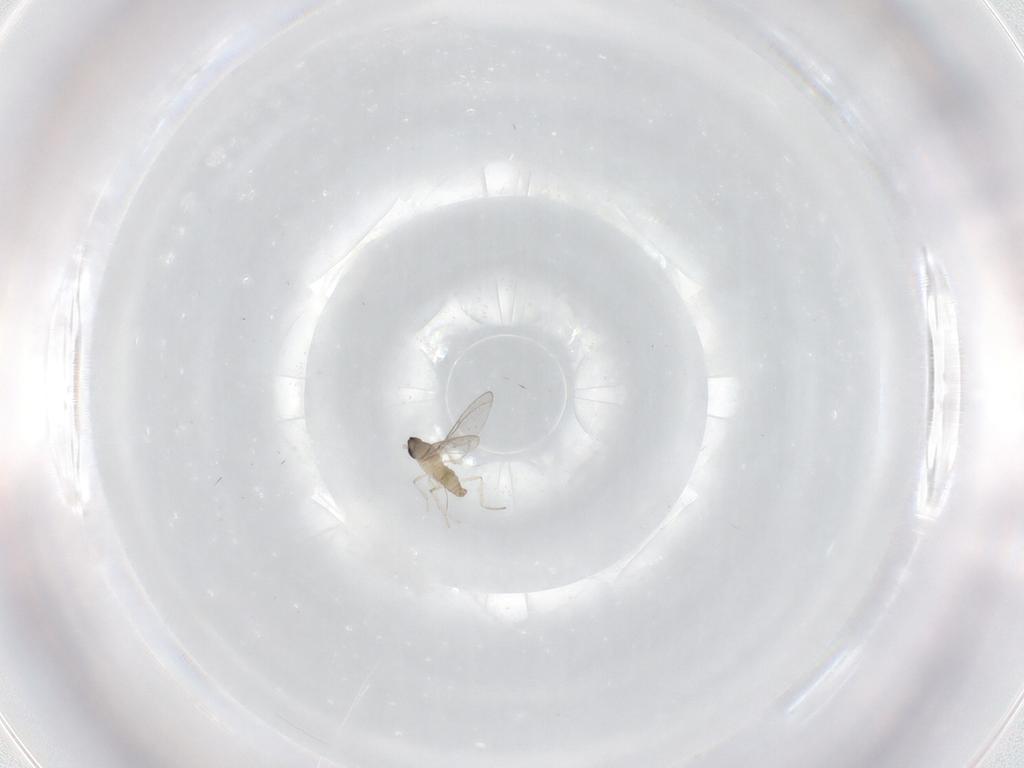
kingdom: Animalia
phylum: Arthropoda
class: Insecta
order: Diptera
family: Cecidomyiidae
